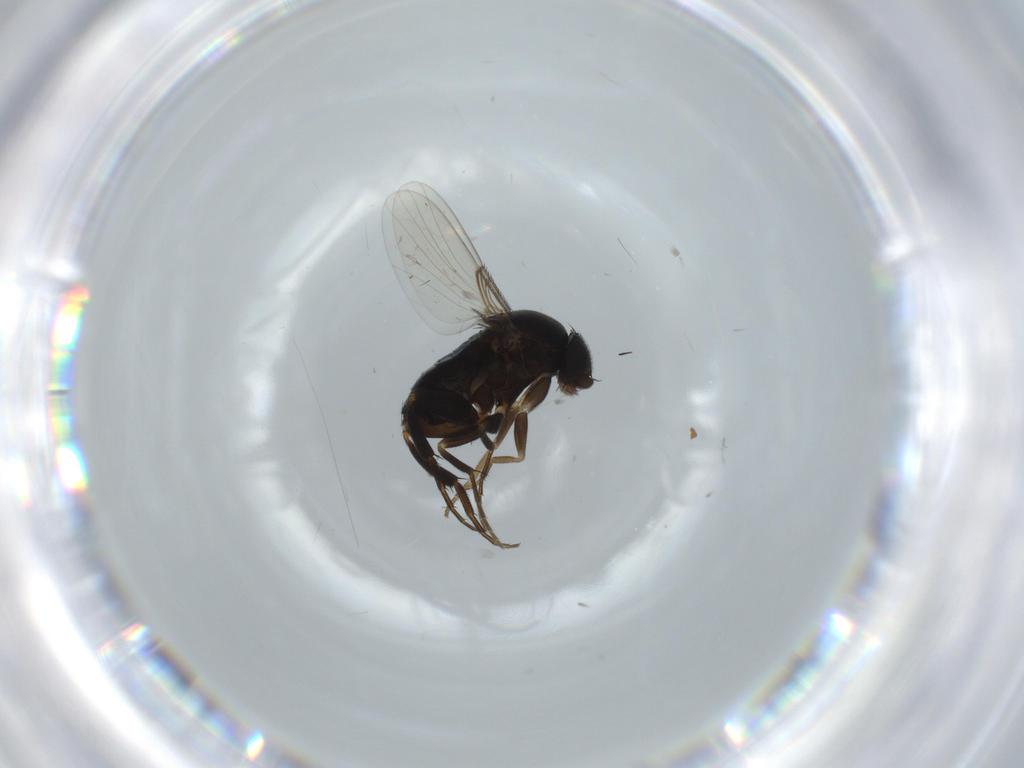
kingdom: Animalia
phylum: Arthropoda
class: Insecta
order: Diptera
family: Phoridae
